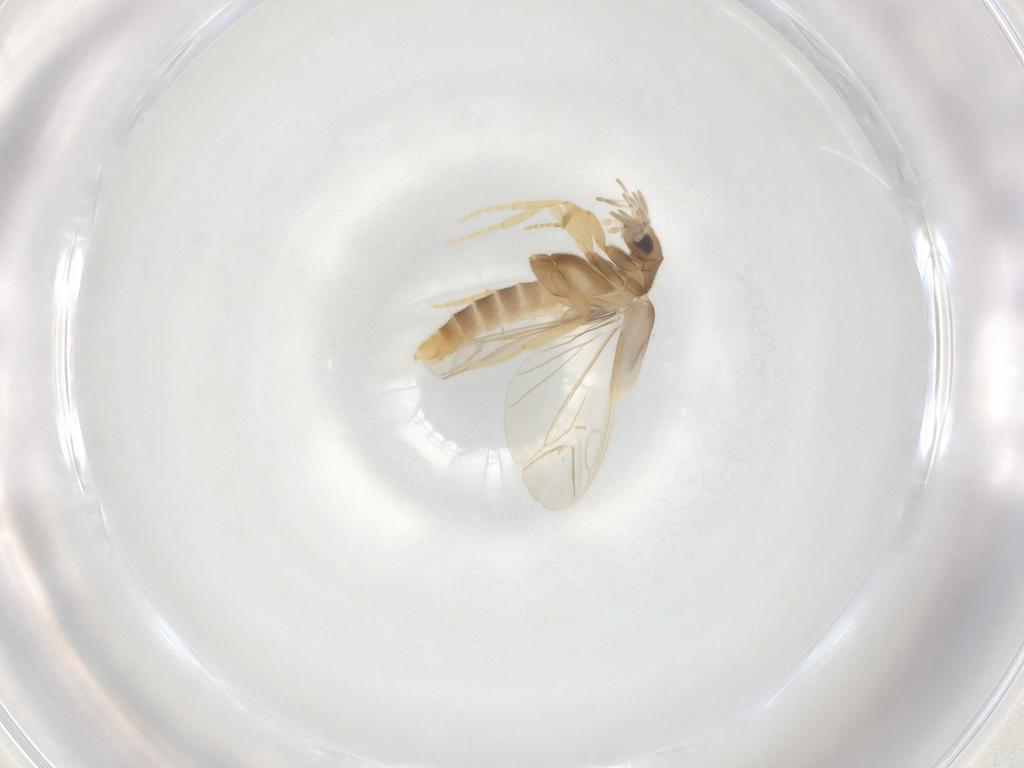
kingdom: Animalia
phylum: Arthropoda
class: Insecta
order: Coleoptera
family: Phengodidae
